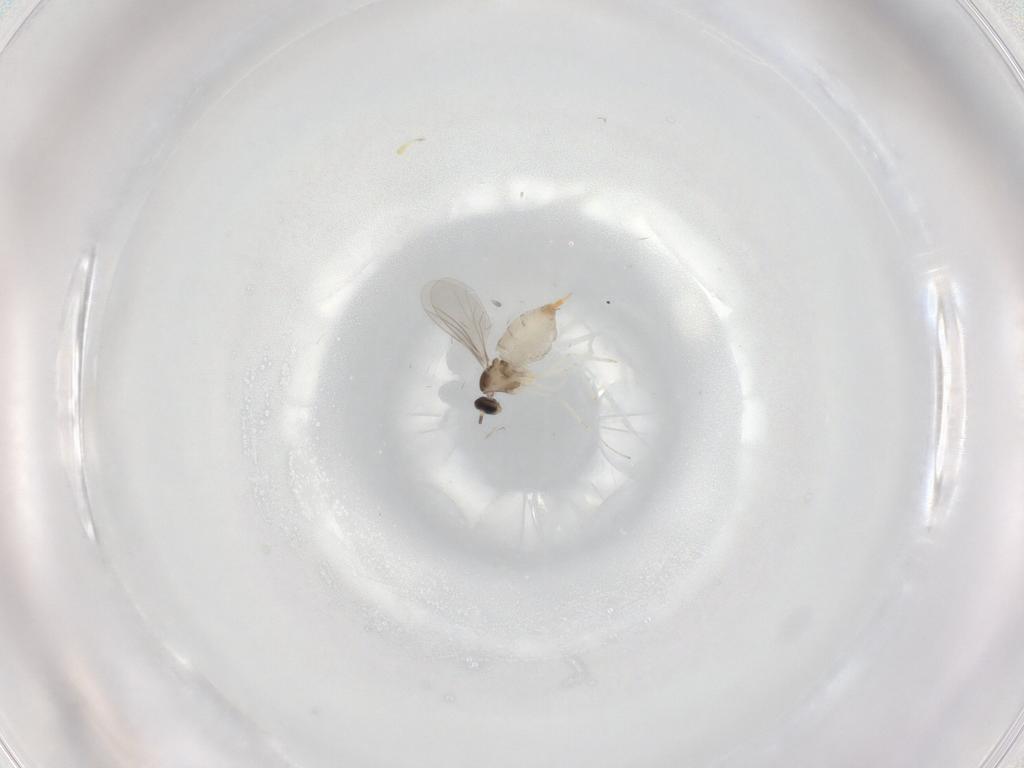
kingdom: Animalia
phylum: Arthropoda
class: Insecta
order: Diptera
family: Cecidomyiidae
